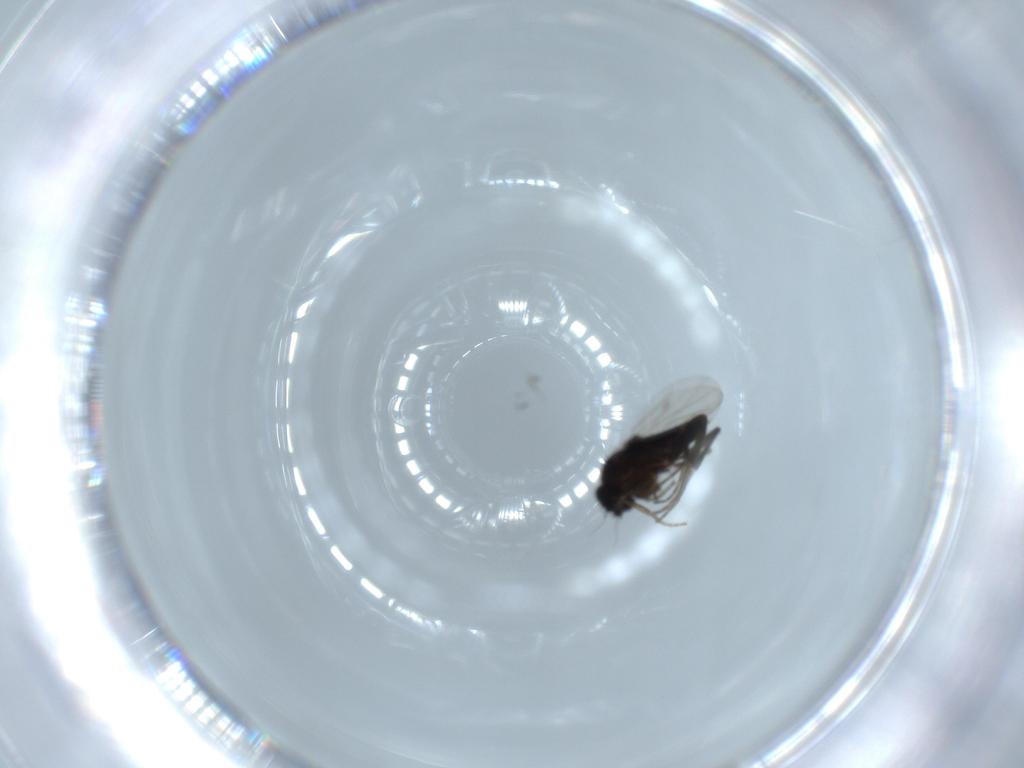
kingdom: Animalia
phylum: Arthropoda
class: Insecta
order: Diptera
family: Phoridae
